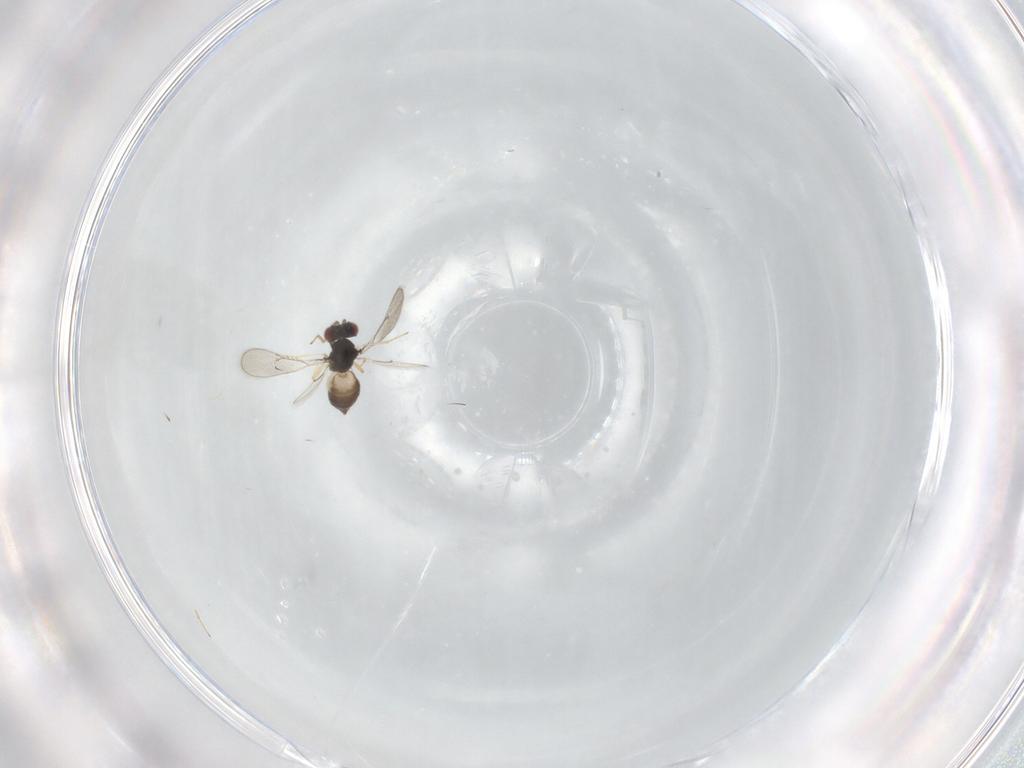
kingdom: Animalia
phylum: Arthropoda
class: Insecta
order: Hymenoptera
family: Eulophidae
